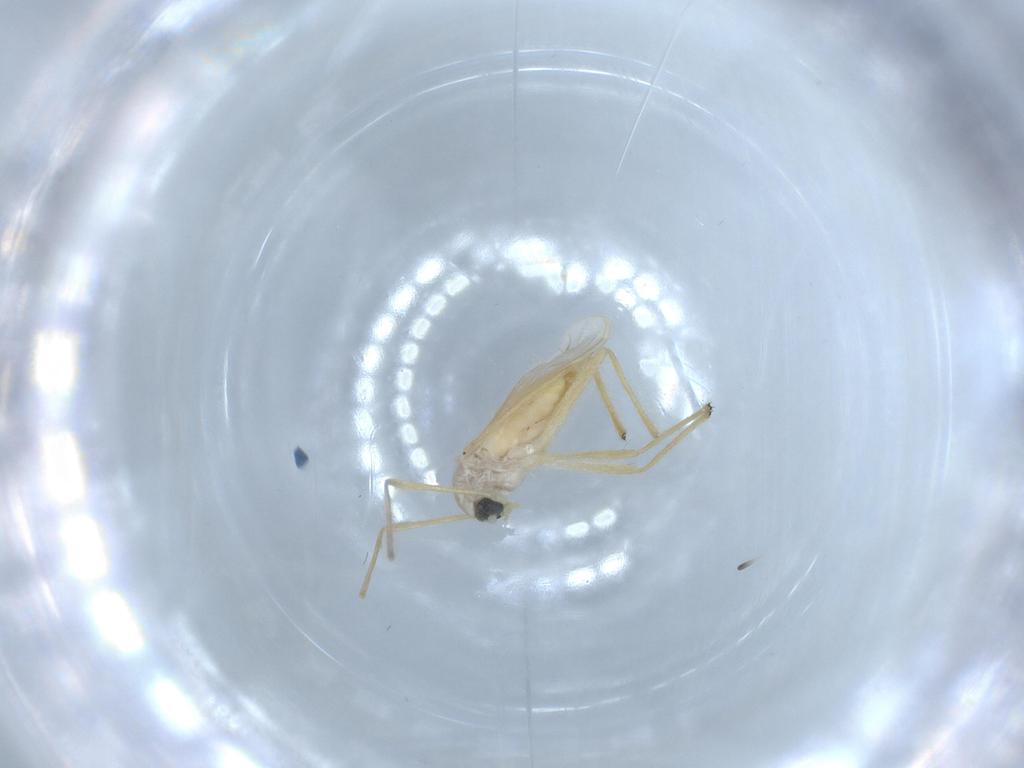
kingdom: Animalia
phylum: Arthropoda
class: Insecta
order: Diptera
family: Chironomidae
